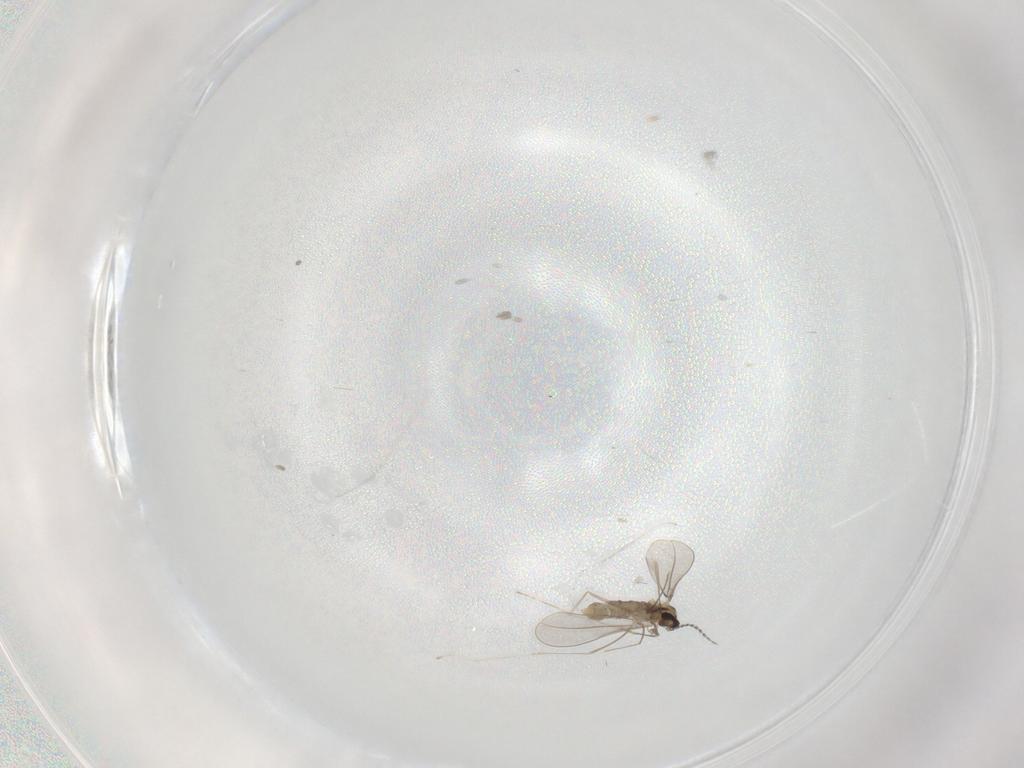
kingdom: Animalia
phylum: Arthropoda
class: Insecta
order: Diptera
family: Cecidomyiidae
